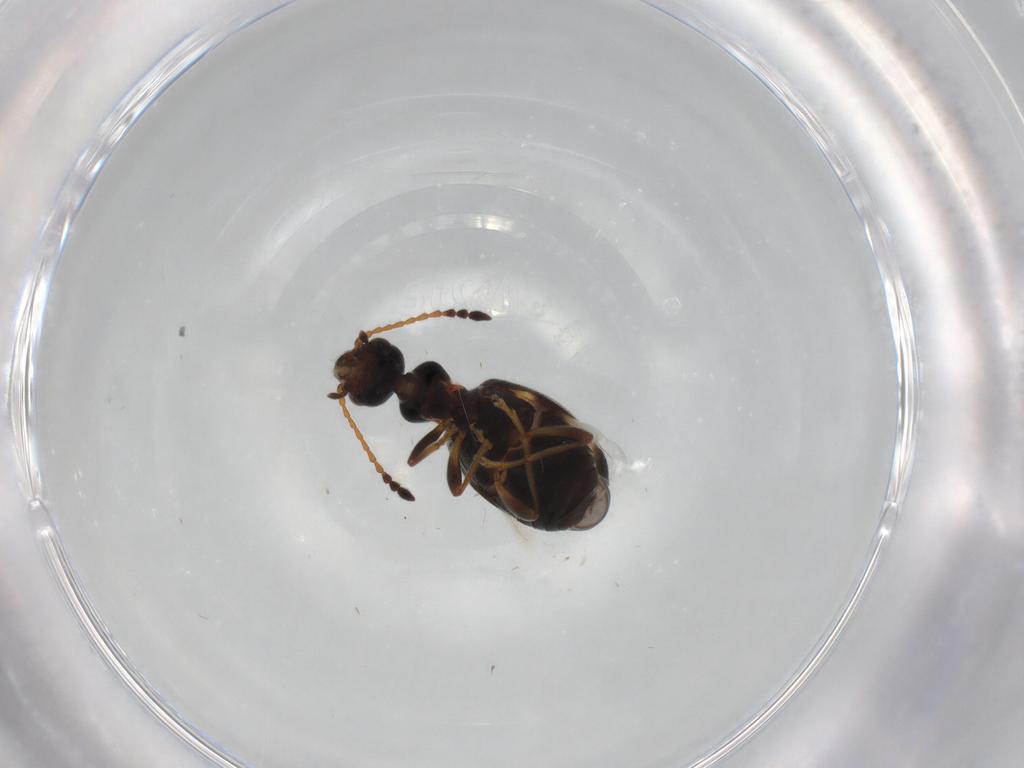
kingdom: Animalia
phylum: Arthropoda
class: Insecta
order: Coleoptera
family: Anthicidae
